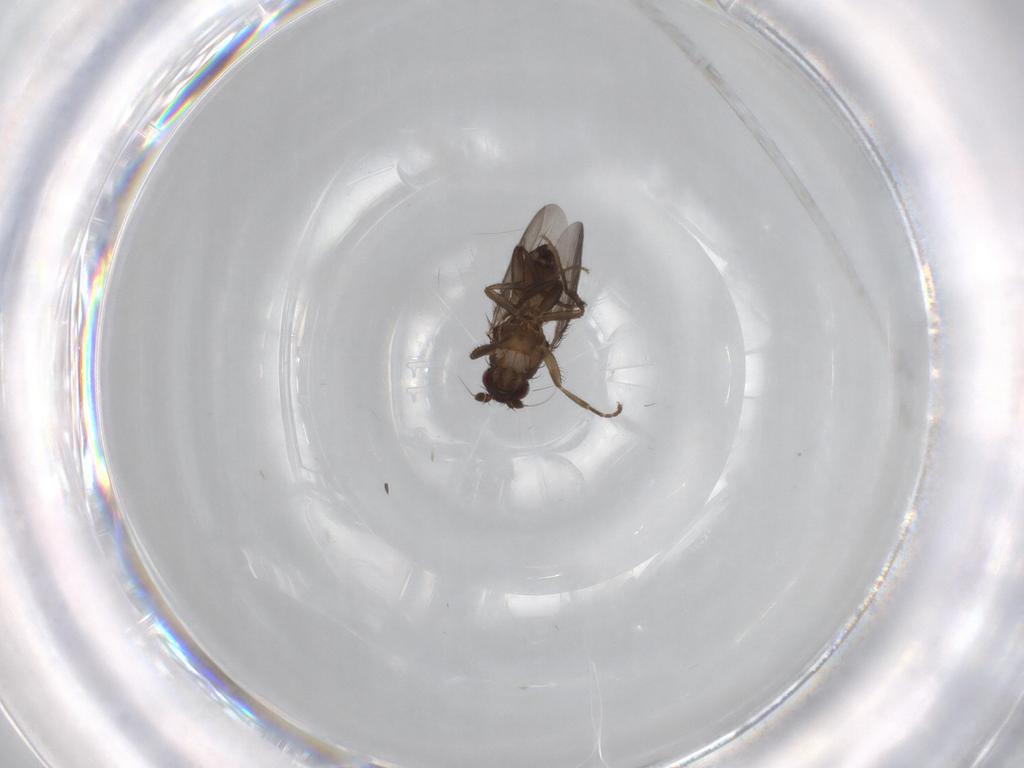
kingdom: Animalia
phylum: Arthropoda
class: Insecta
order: Diptera
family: Sphaeroceridae
